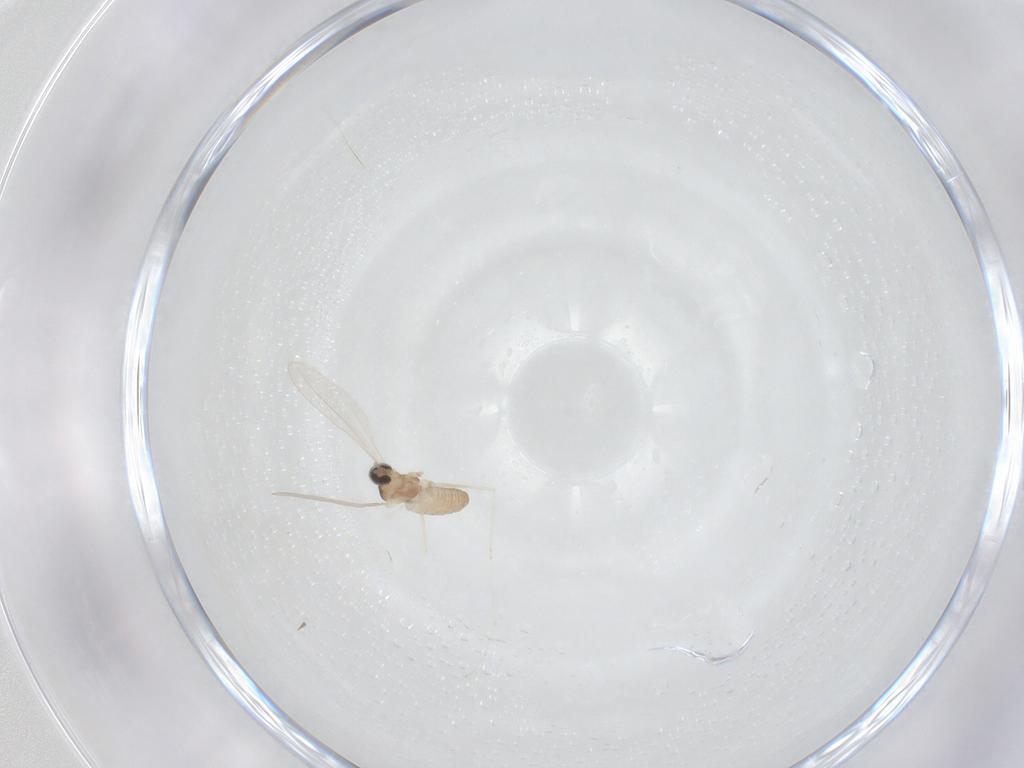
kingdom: Animalia
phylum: Arthropoda
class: Insecta
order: Diptera
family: Cecidomyiidae
